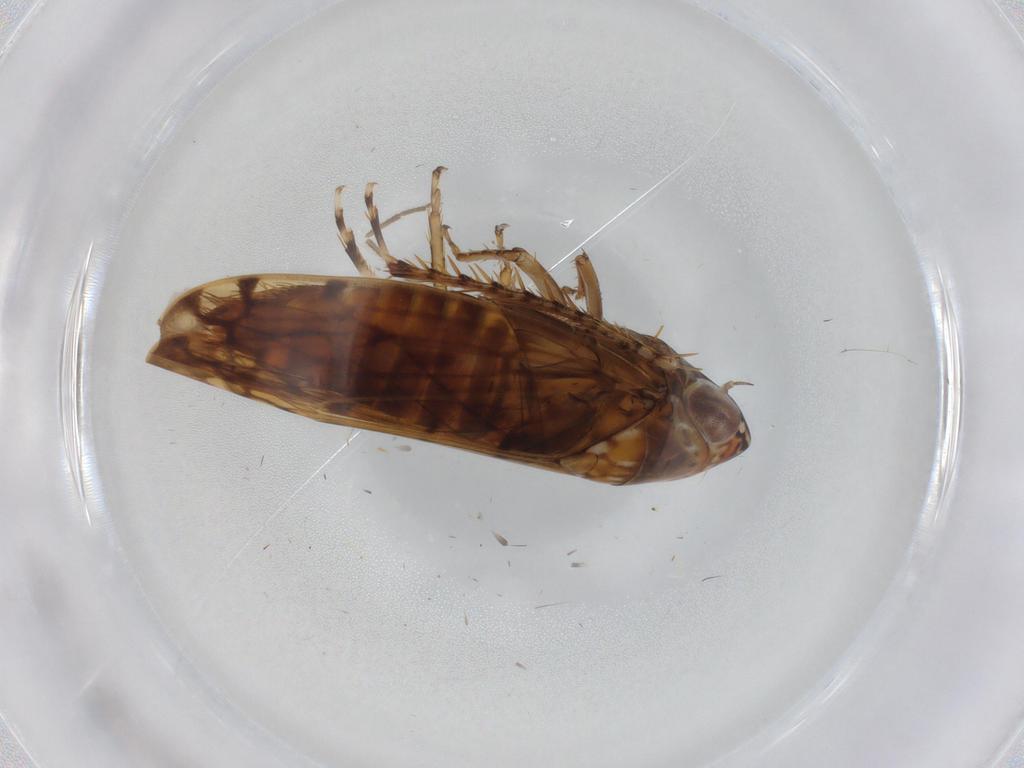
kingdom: Animalia
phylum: Arthropoda
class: Insecta
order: Hemiptera
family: Cicadellidae
